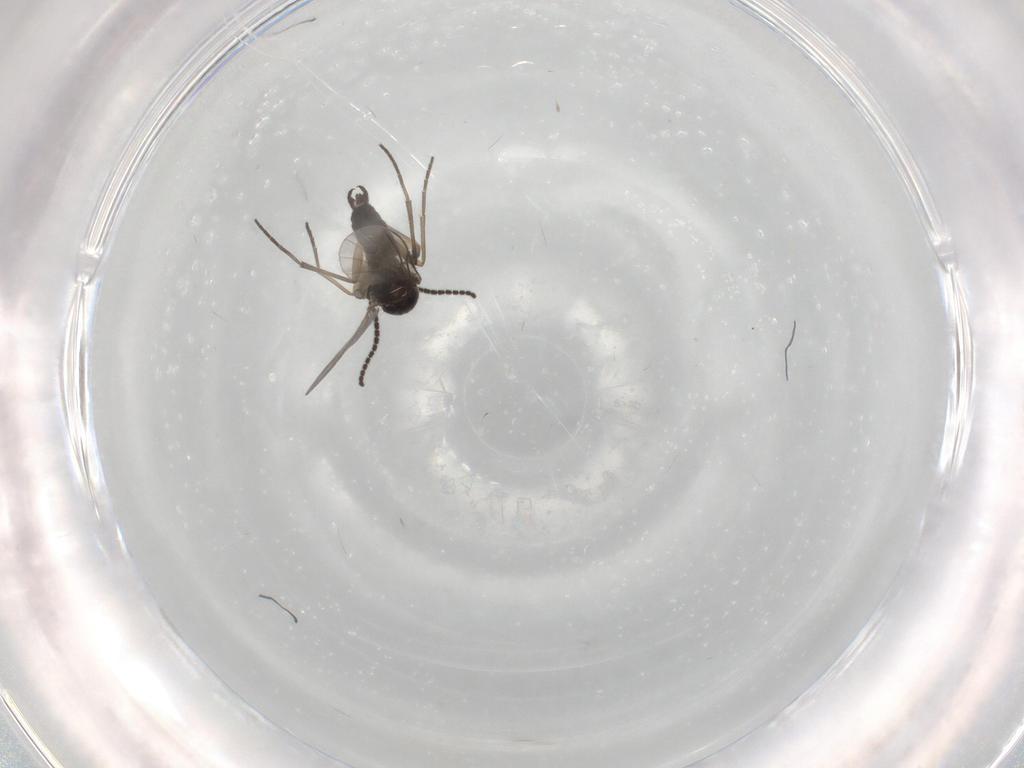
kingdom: Animalia
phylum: Arthropoda
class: Insecta
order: Diptera
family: Sciaridae
